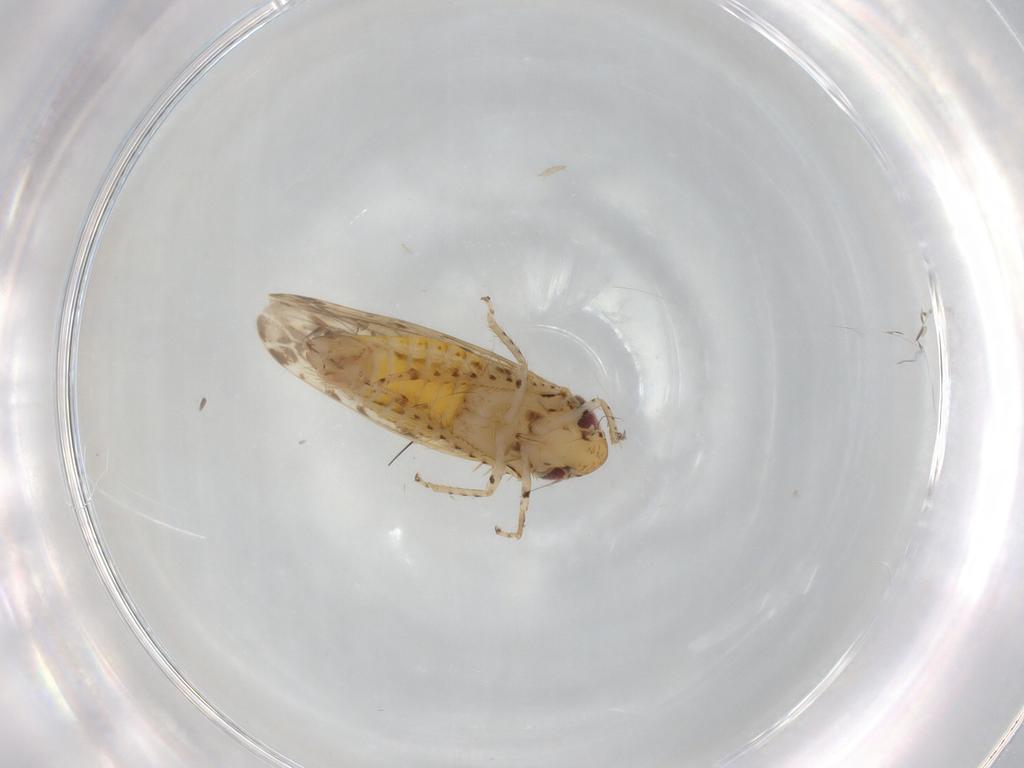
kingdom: Animalia
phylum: Arthropoda
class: Insecta
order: Hemiptera
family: Cicadellidae
